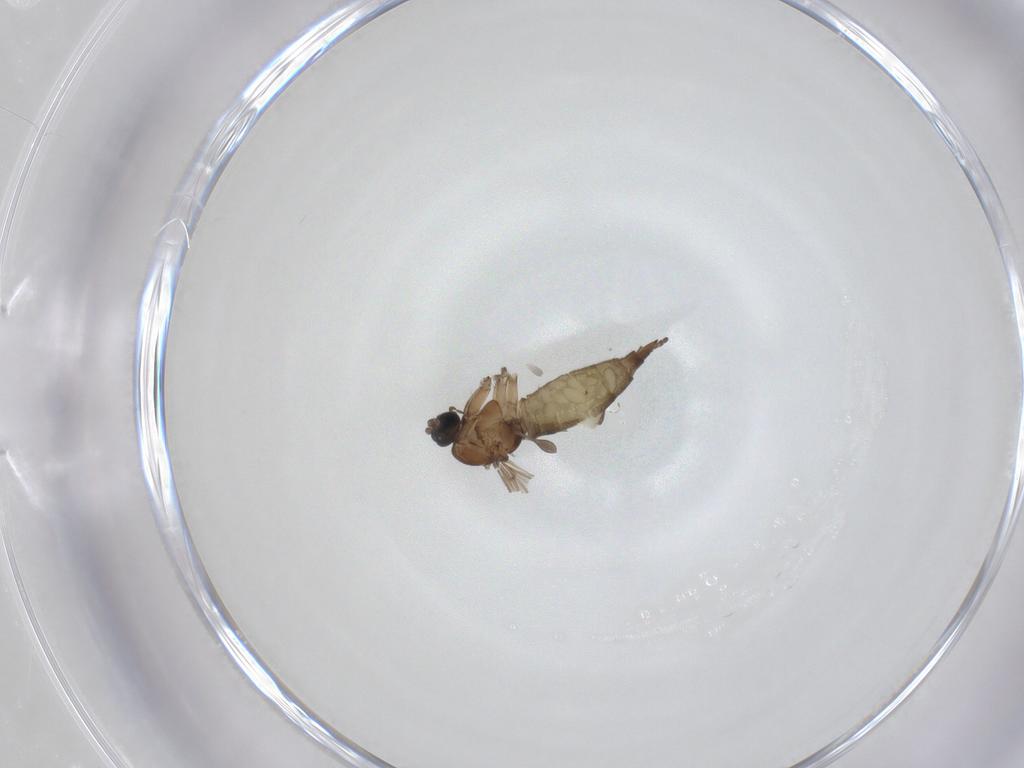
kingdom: Animalia
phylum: Arthropoda
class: Insecta
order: Diptera
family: Sciaridae
